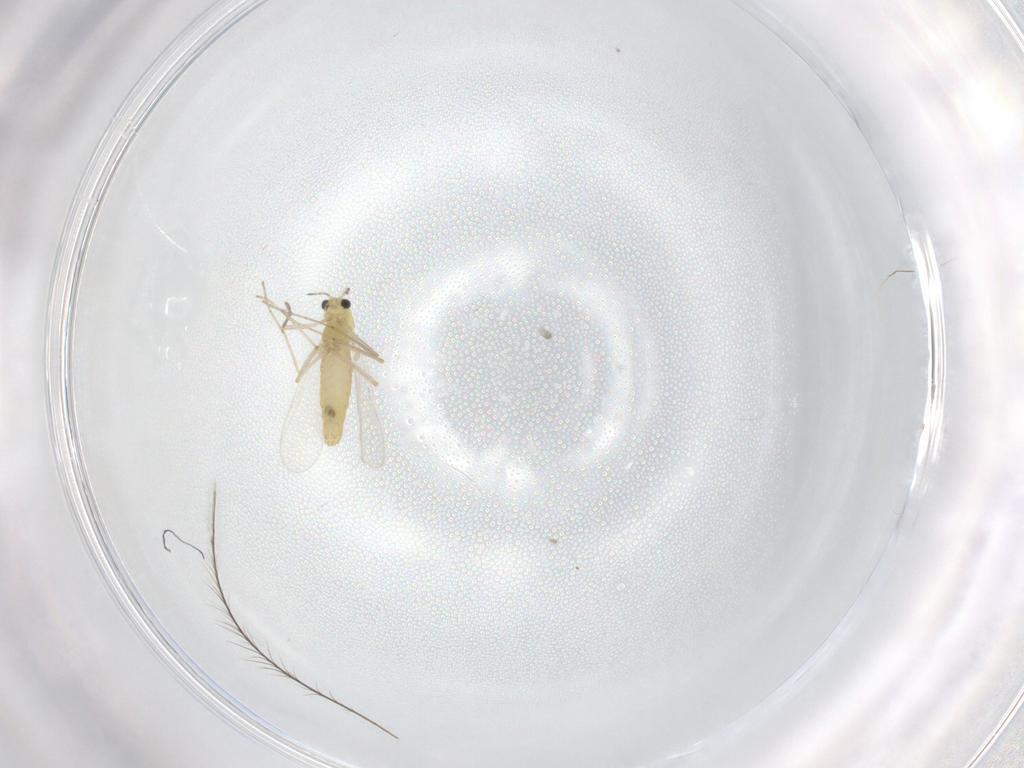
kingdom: Animalia
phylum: Arthropoda
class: Insecta
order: Diptera
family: Chironomidae
